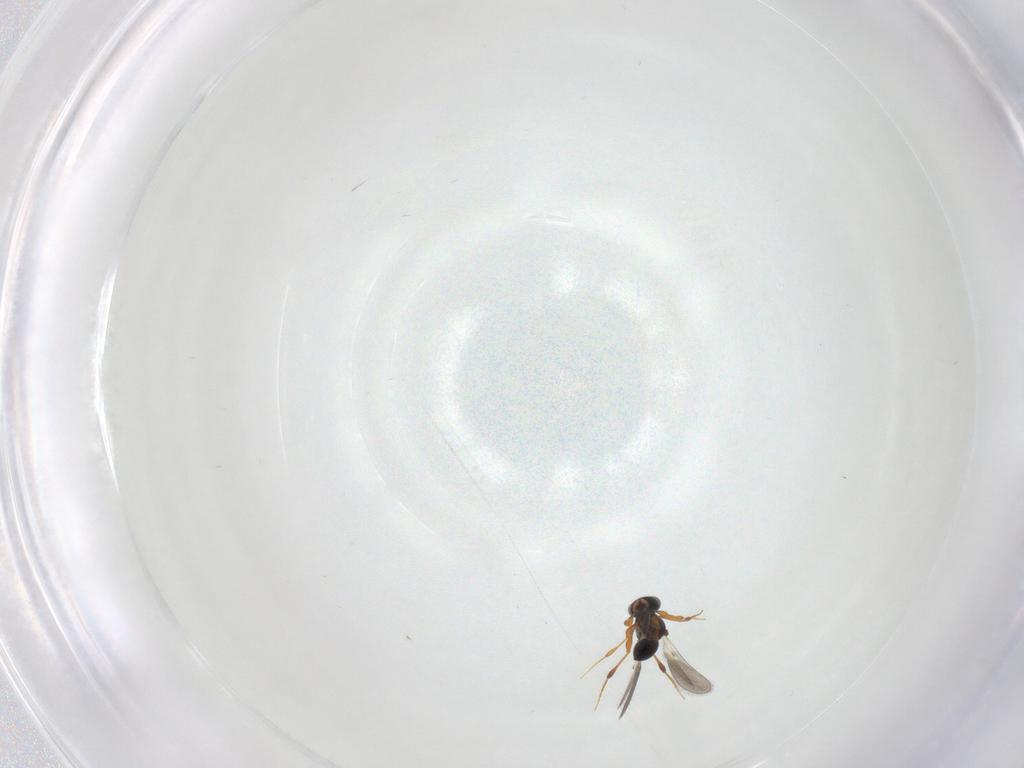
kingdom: Animalia
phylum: Arthropoda
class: Insecta
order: Hymenoptera
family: Platygastridae
